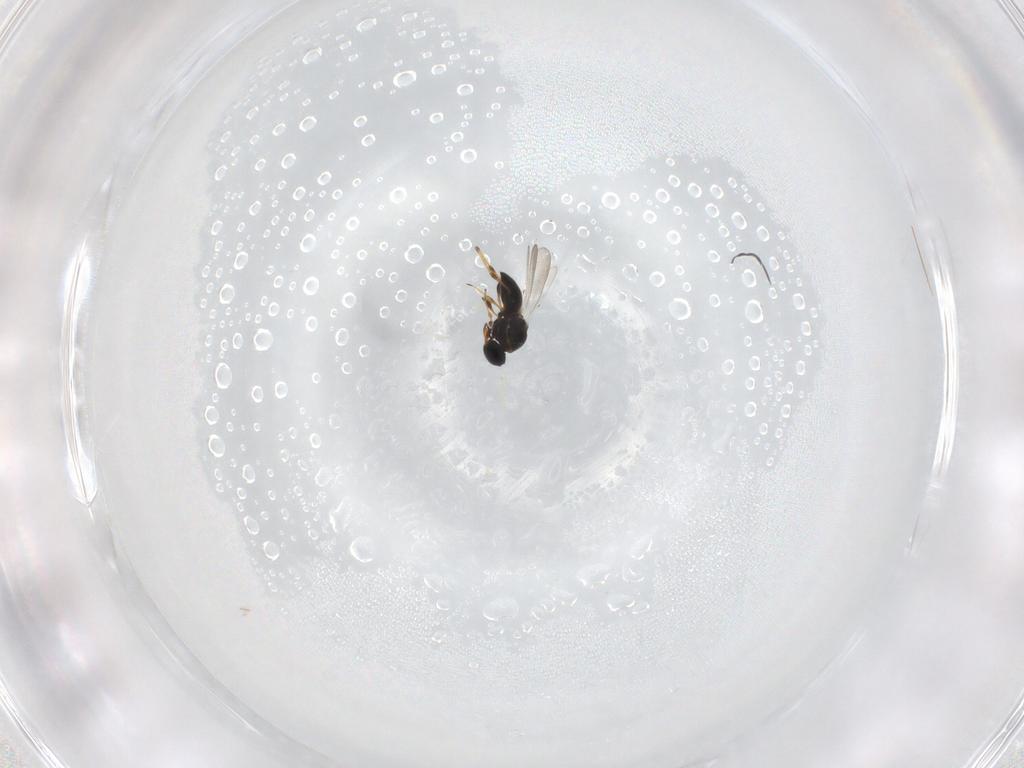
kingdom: Animalia
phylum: Arthropoda
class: Insecta
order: Hymenoptera
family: Platygastridae
